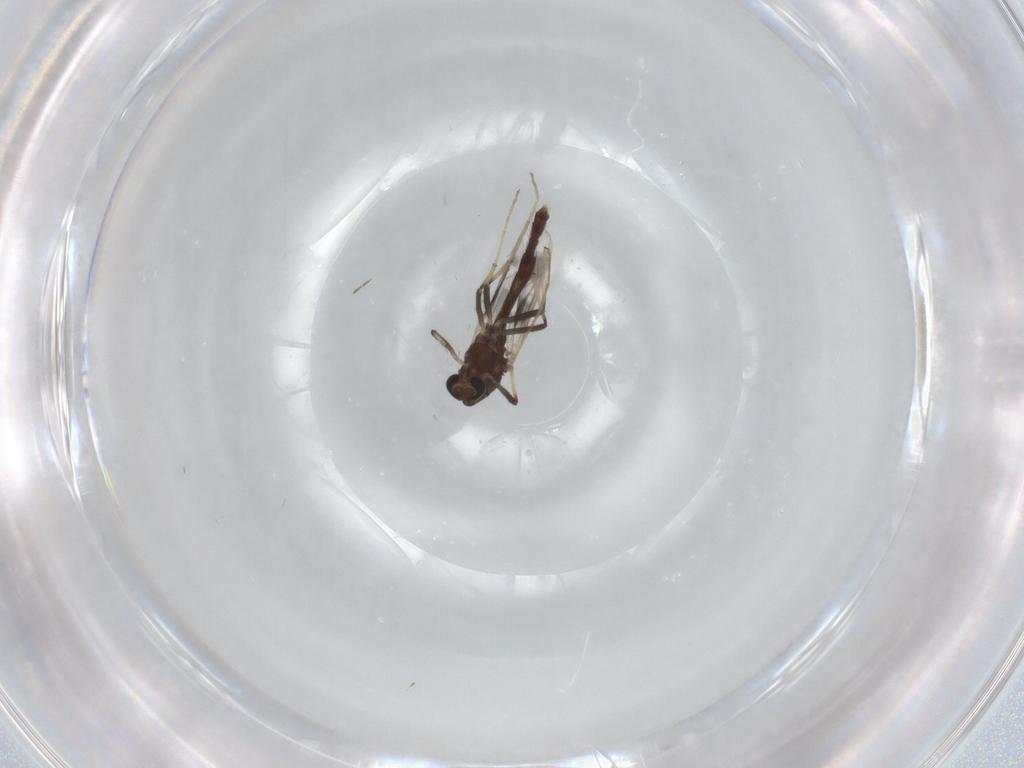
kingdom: Animalia
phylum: Arthropoda
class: Insecta
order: Diptera
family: Chironomidae
